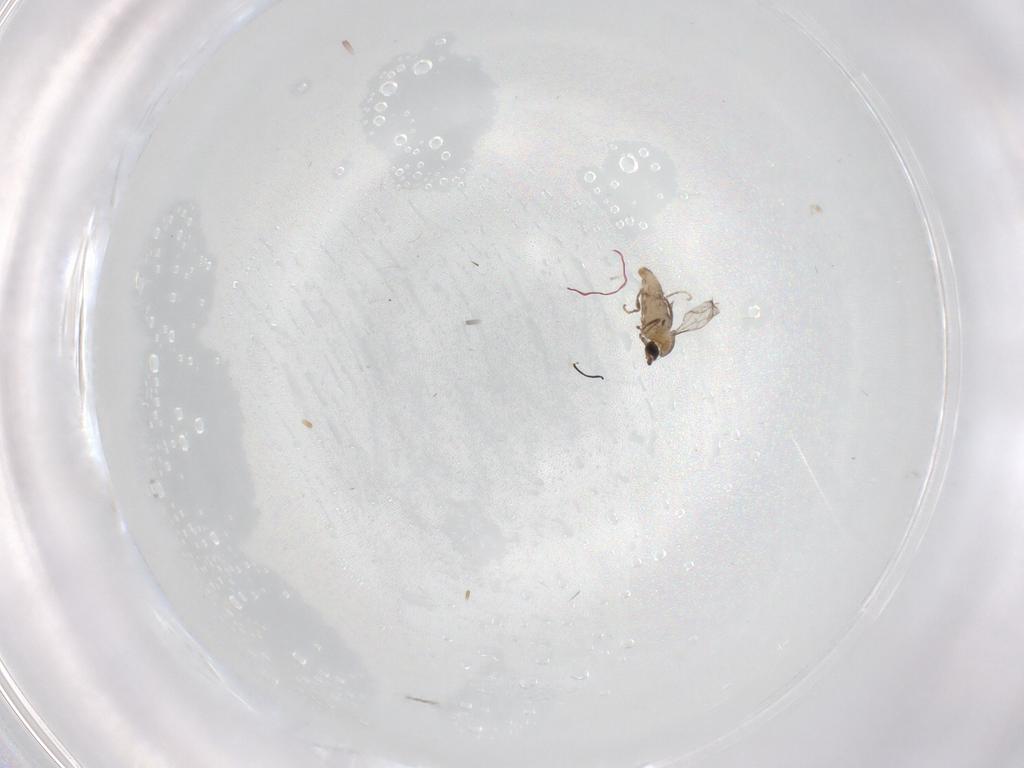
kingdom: Animalia
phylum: Arthropoda
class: Insecta
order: Diptera
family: Cecidomyiidae
